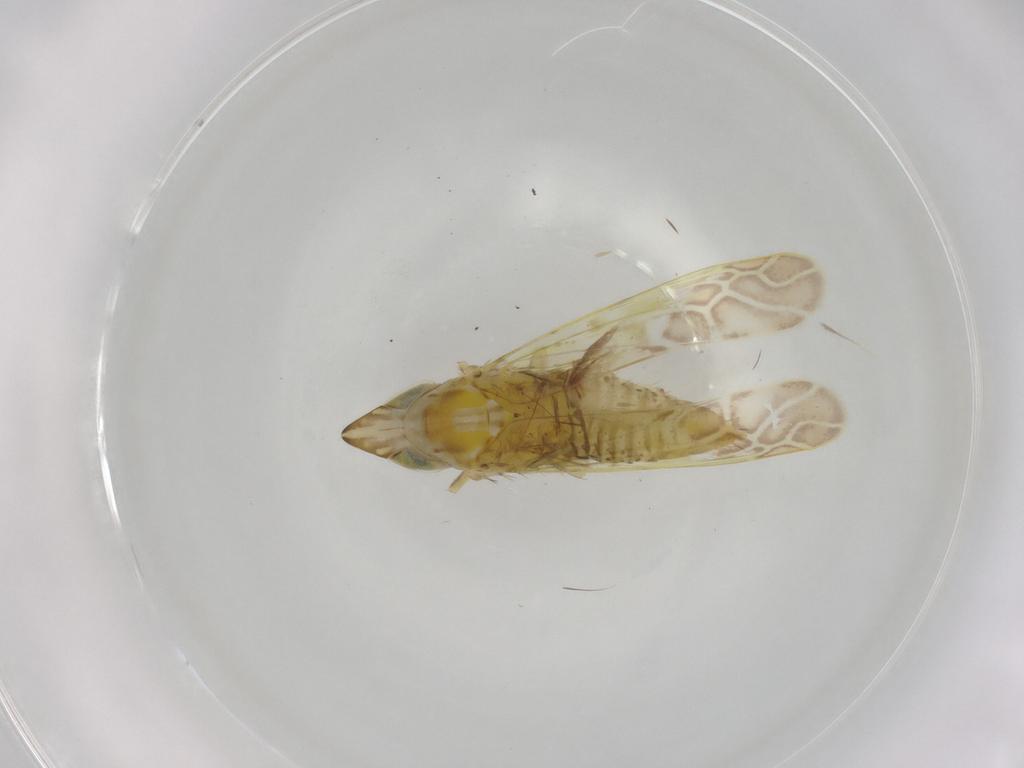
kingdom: Animalia
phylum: Arthropoda
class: Insecta
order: Hemiptera
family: Cicadellidae
